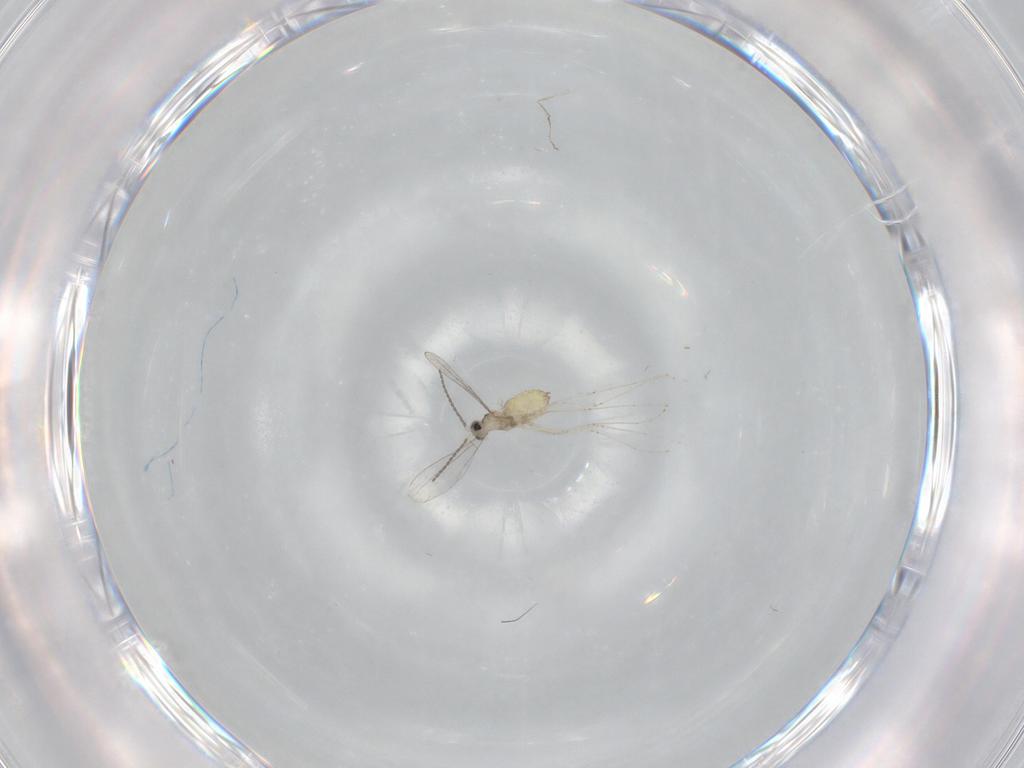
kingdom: Animalia
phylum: Arthropoda
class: Insecta
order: Diptera
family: Cecidomyiidae
